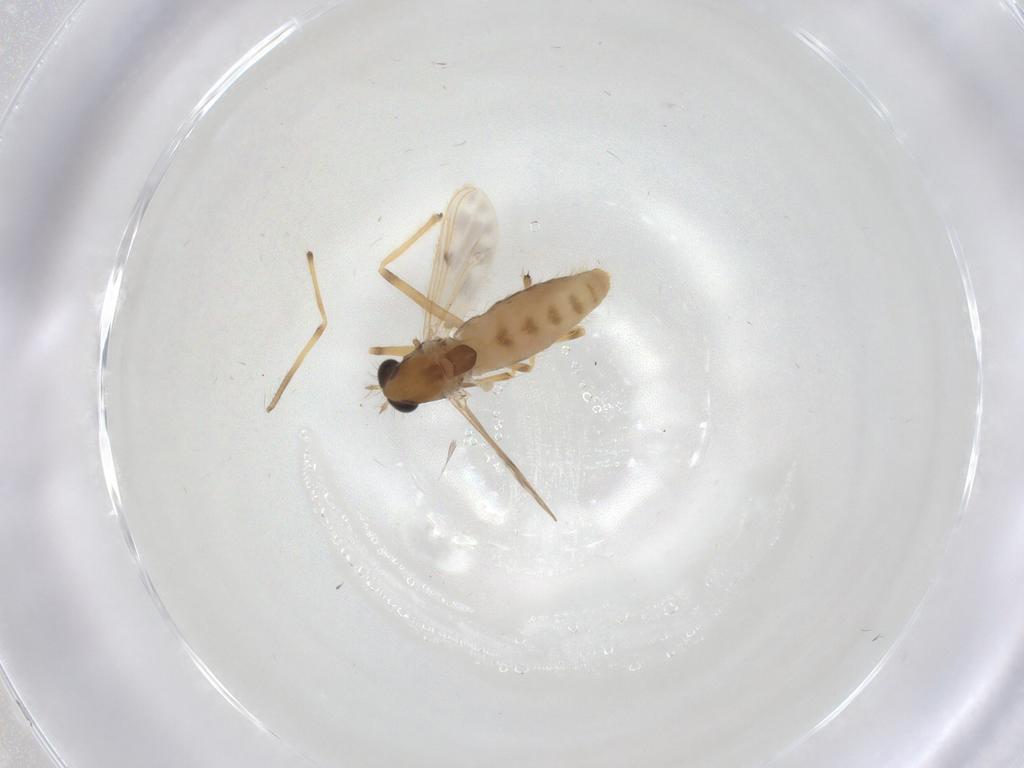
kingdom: Animalia
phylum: Arthropoda
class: Insecta
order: Diptera
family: Chironomidae
